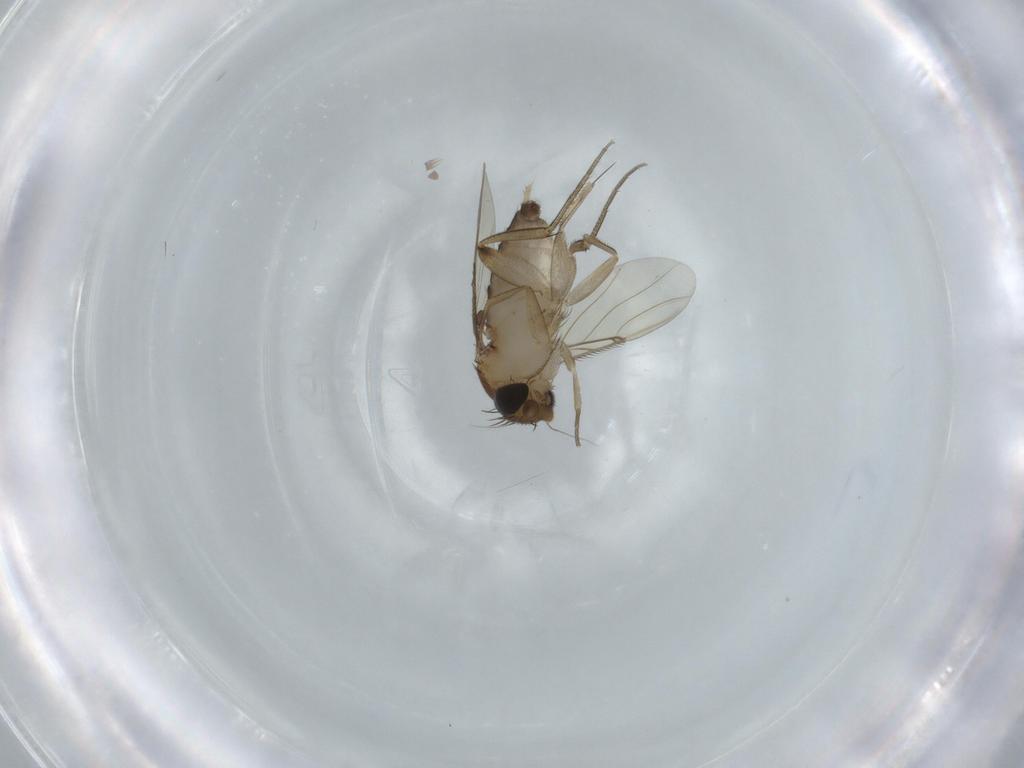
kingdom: Animalia
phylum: Arthropoda
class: Insecta
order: Diptera
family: Phoridae
